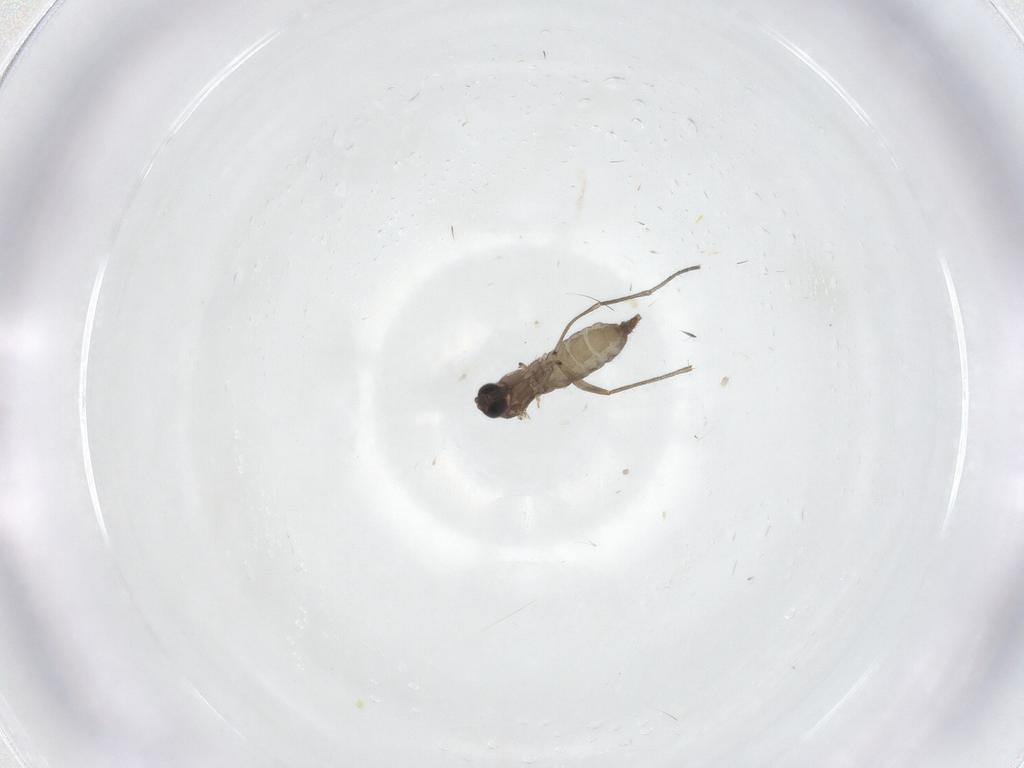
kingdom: Animalia
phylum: Arthropoda
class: Insecta
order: Diptera
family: Sciaridae
